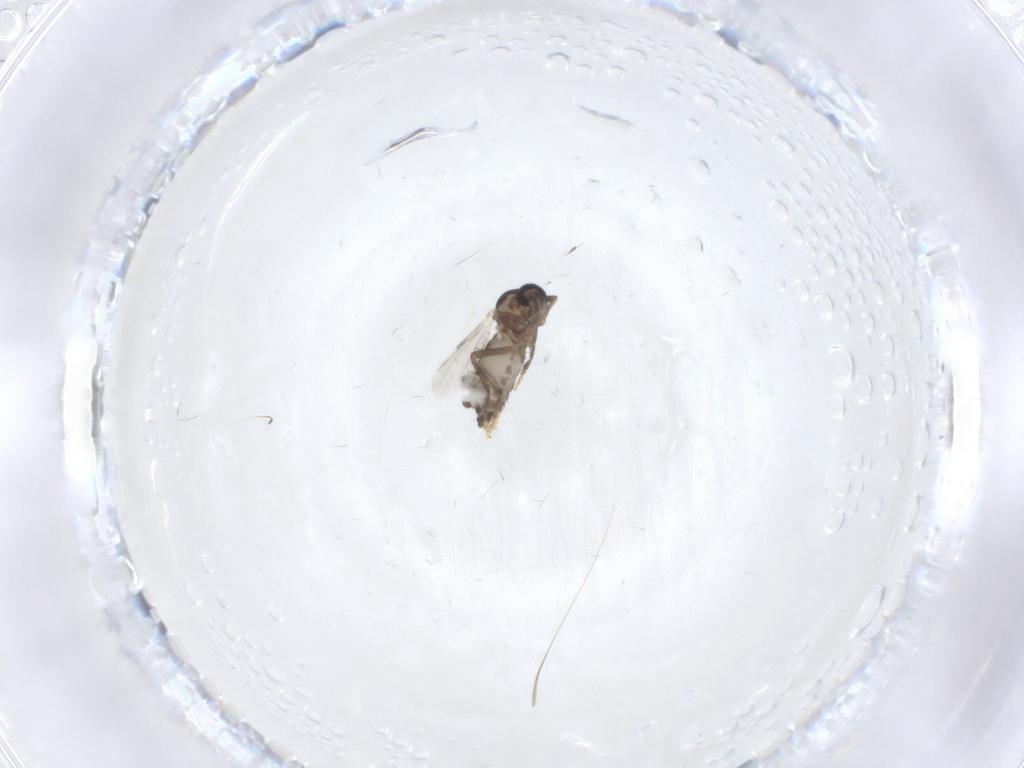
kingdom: Animalia
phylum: Arthropoda
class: Insecta
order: Diptera
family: Ceratopogonidae
